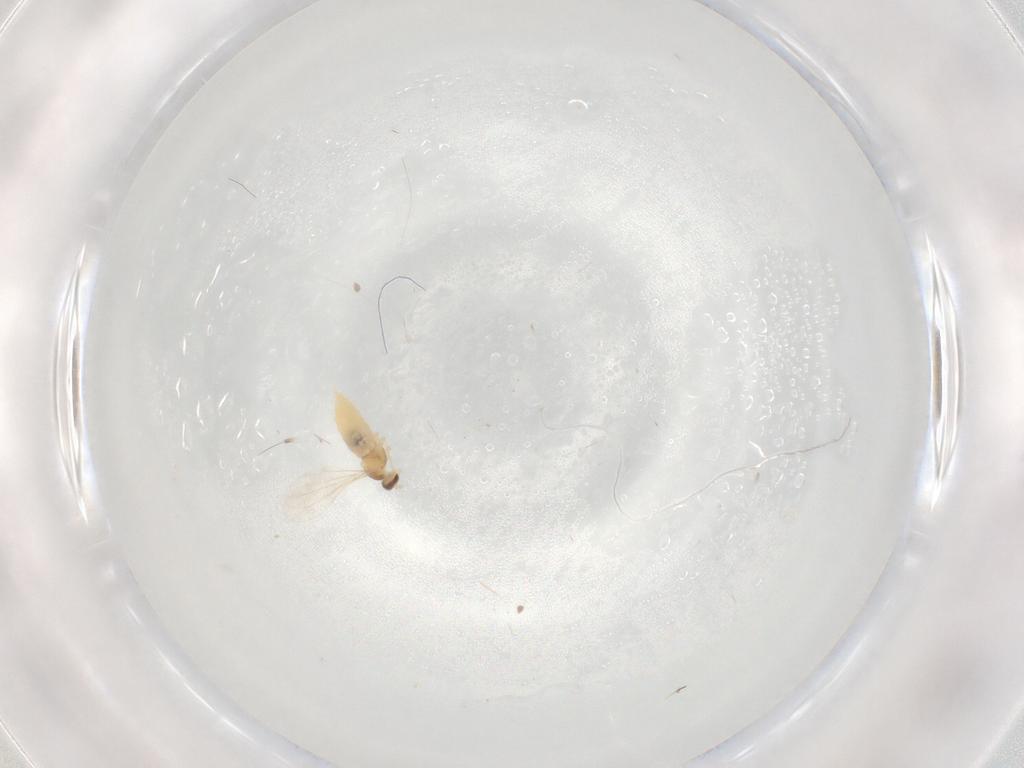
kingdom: Animalia
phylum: Arthropoda
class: Insecta
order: Diptera
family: Cecidomyiidae
